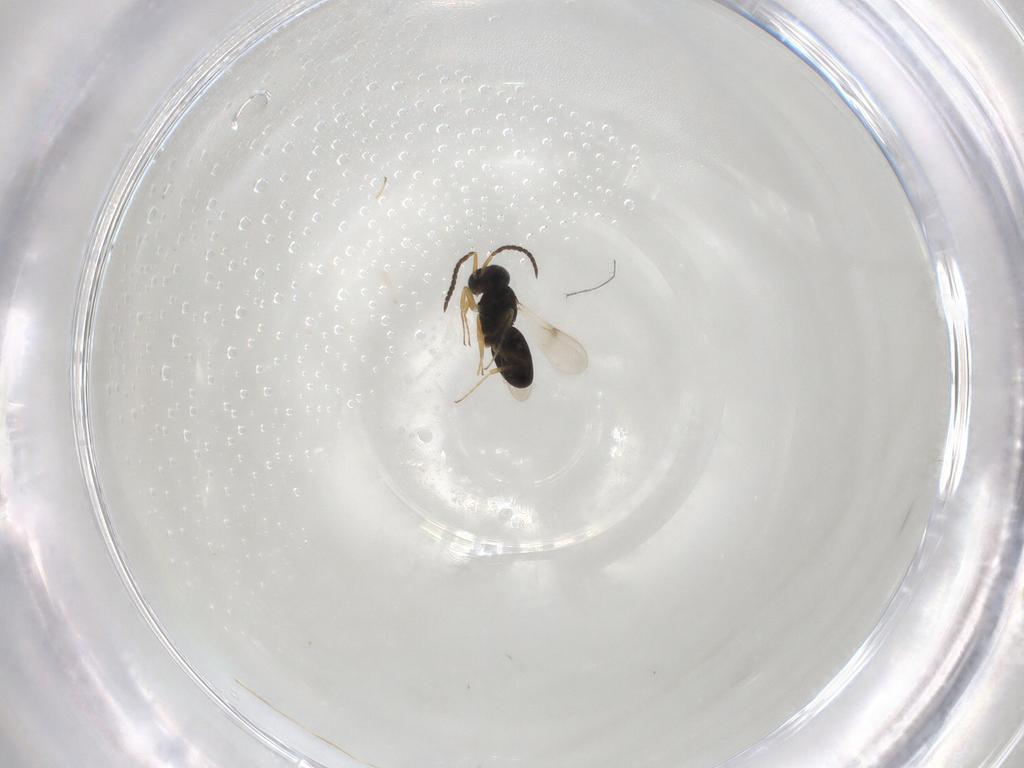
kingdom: Animalia
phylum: Arthropoda
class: Insecta
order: Hymenoptera
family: Scelionidae
